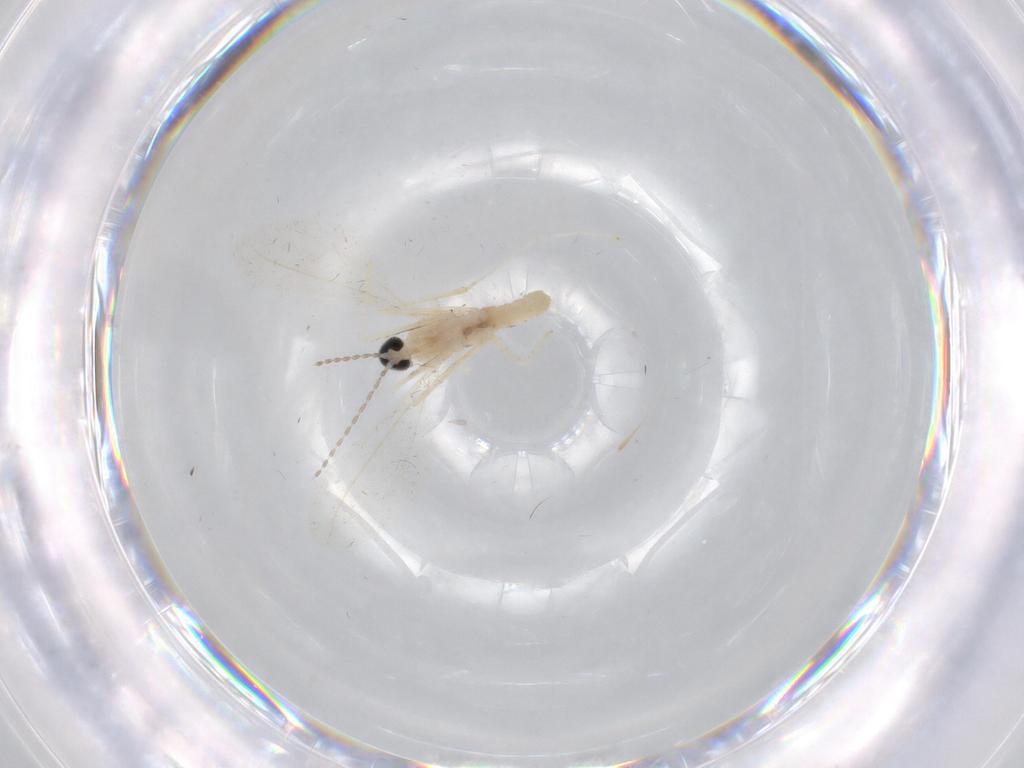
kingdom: Animalia
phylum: Arthropoda
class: Insecta
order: Diptera
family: Cecidomyiidae
